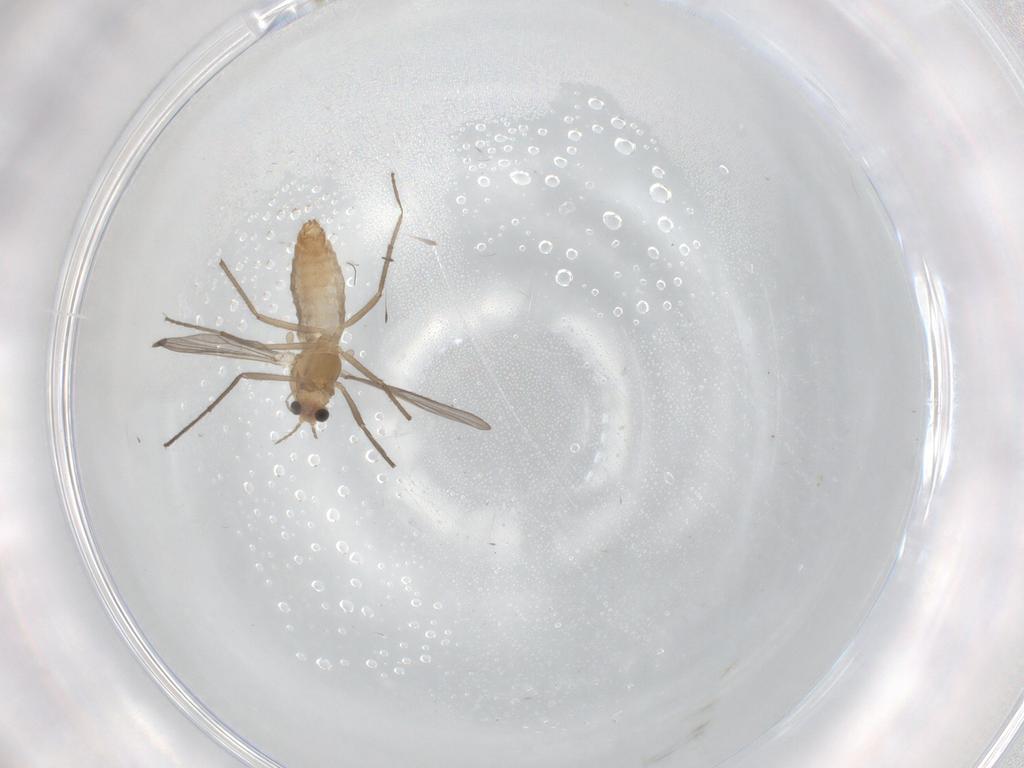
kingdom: Animalia
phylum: Arthropoda
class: Insecta
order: Diptera
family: Chironomidae
